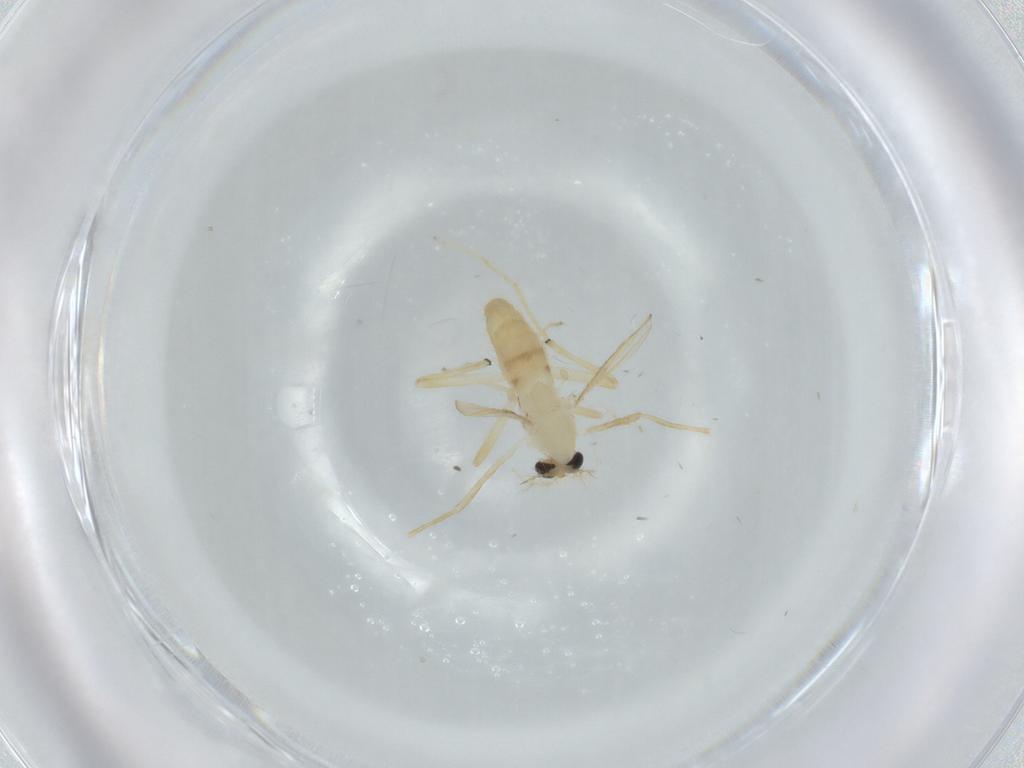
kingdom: Animalia
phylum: Arthropoda
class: Insecta
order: Diptera
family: Chironomidae
